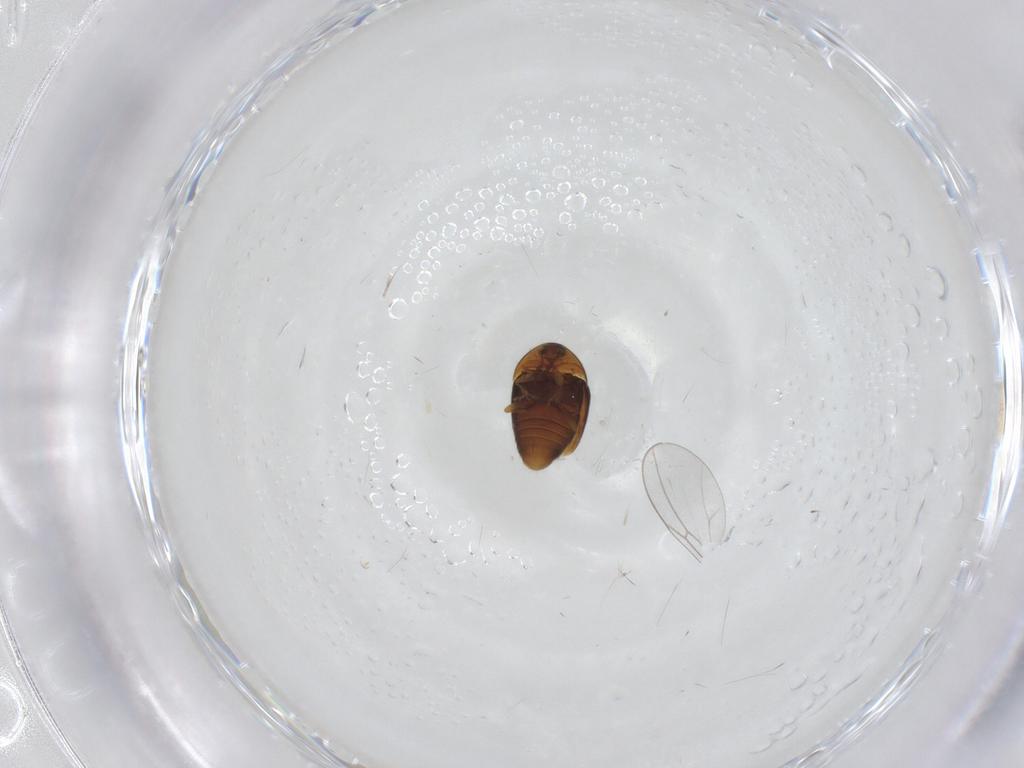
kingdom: Animalia
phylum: Arthropoda
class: Insecta
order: Coleoptera
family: Corylophidae
